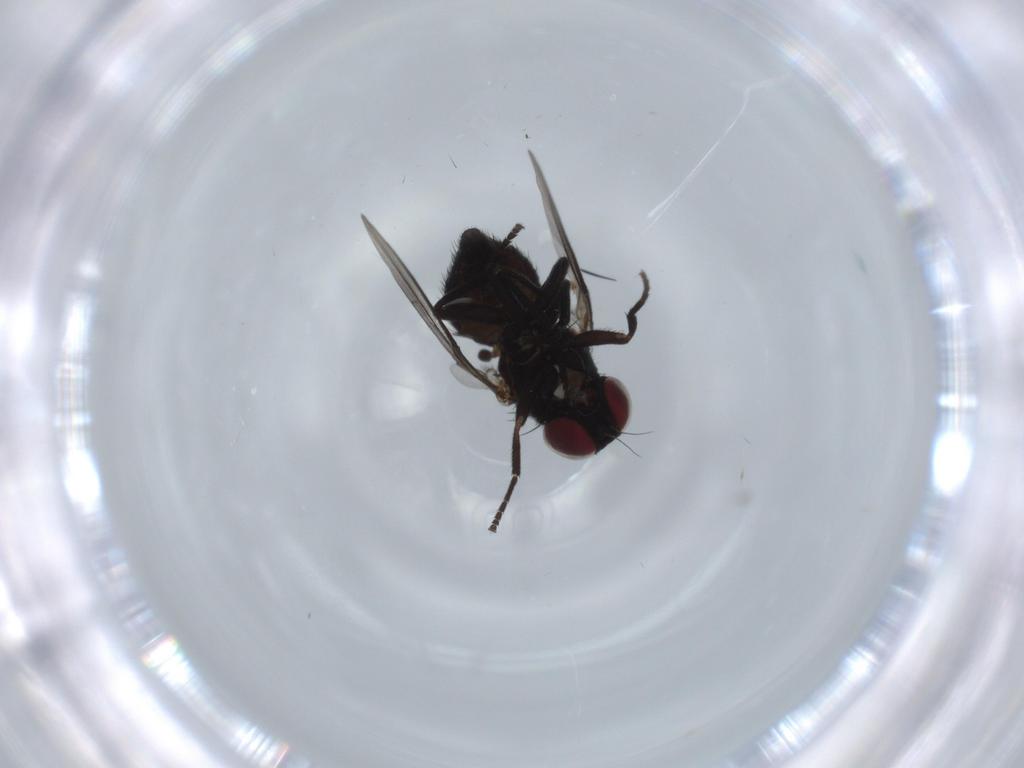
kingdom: Animalia
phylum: Arthropoda
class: Insecta
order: Diptera
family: Agromyzidae
